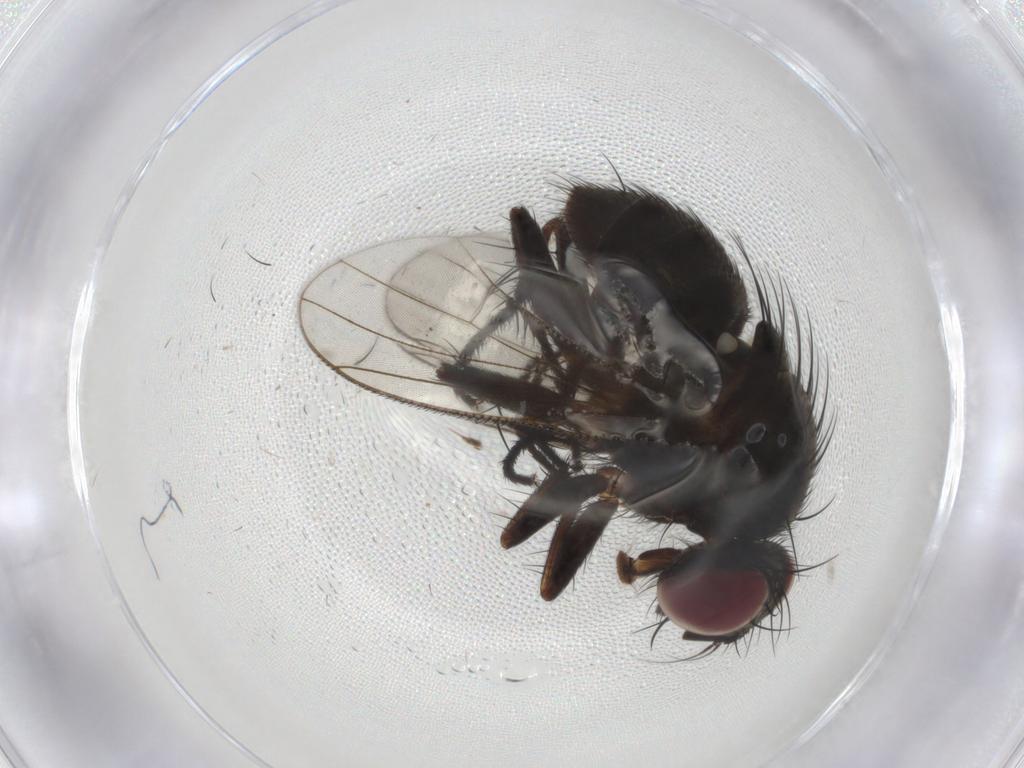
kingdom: Animalia
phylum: Arthropoda
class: Insecta
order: Diptera
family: Muscidae
